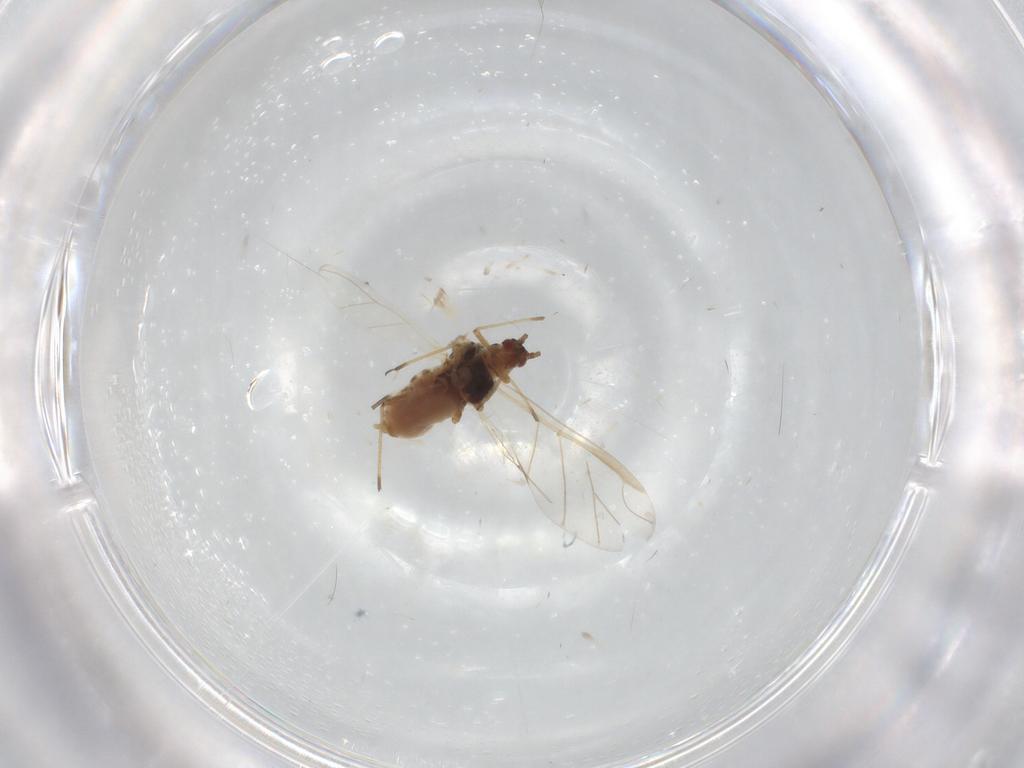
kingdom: Animalia
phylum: Arthropoda
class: Insecta
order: Hemiptera
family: Aphididae
